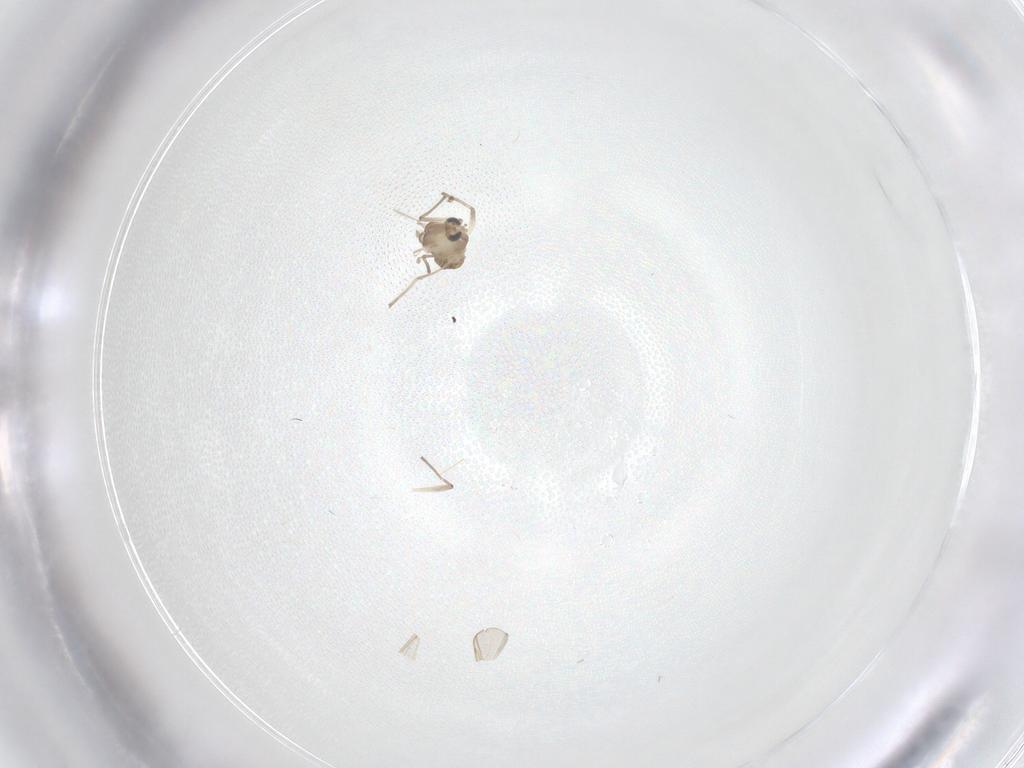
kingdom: Animalia
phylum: Arthropoda
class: Insecta
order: Diptera
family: Chironomidae
